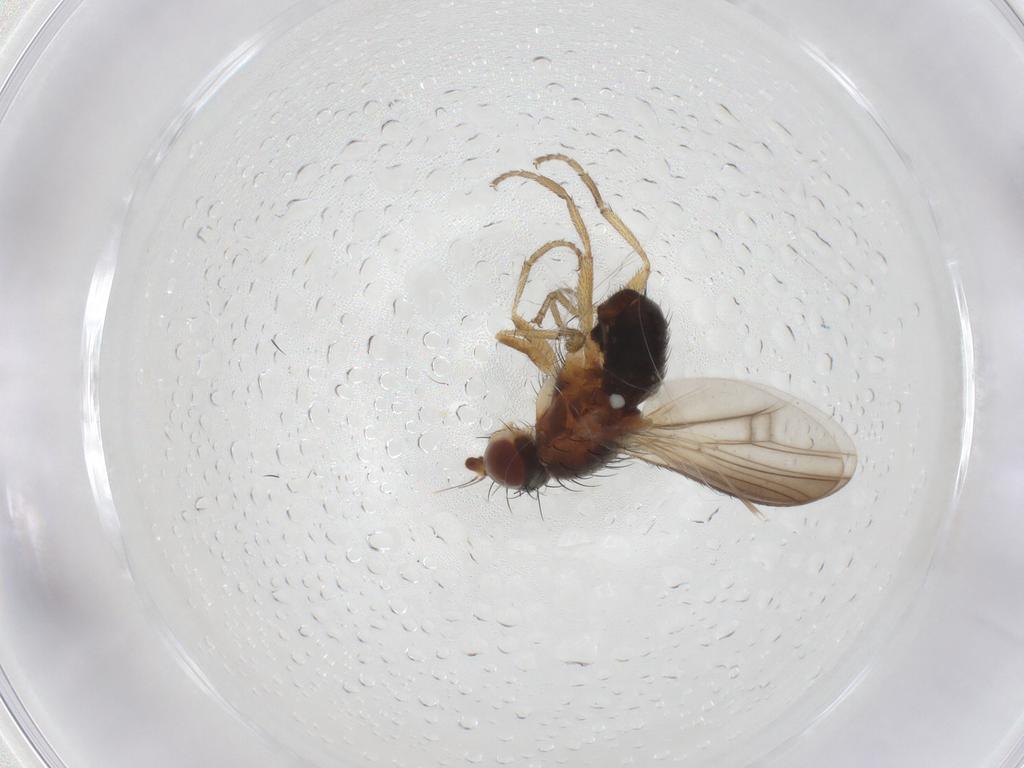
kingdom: Animalia
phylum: Arthropoda
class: Insecta
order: Diptera
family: Heleomyzidae
